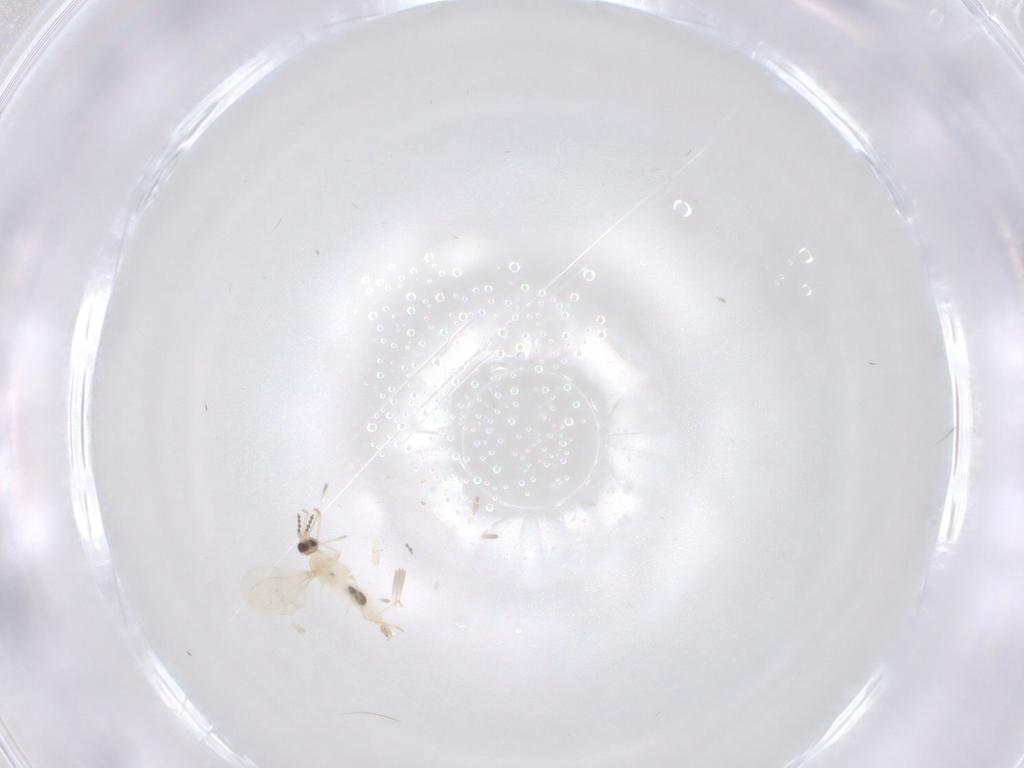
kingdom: Animalia
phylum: Arthropoda
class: Insecta
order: Diptera
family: Cecidomyiidae
